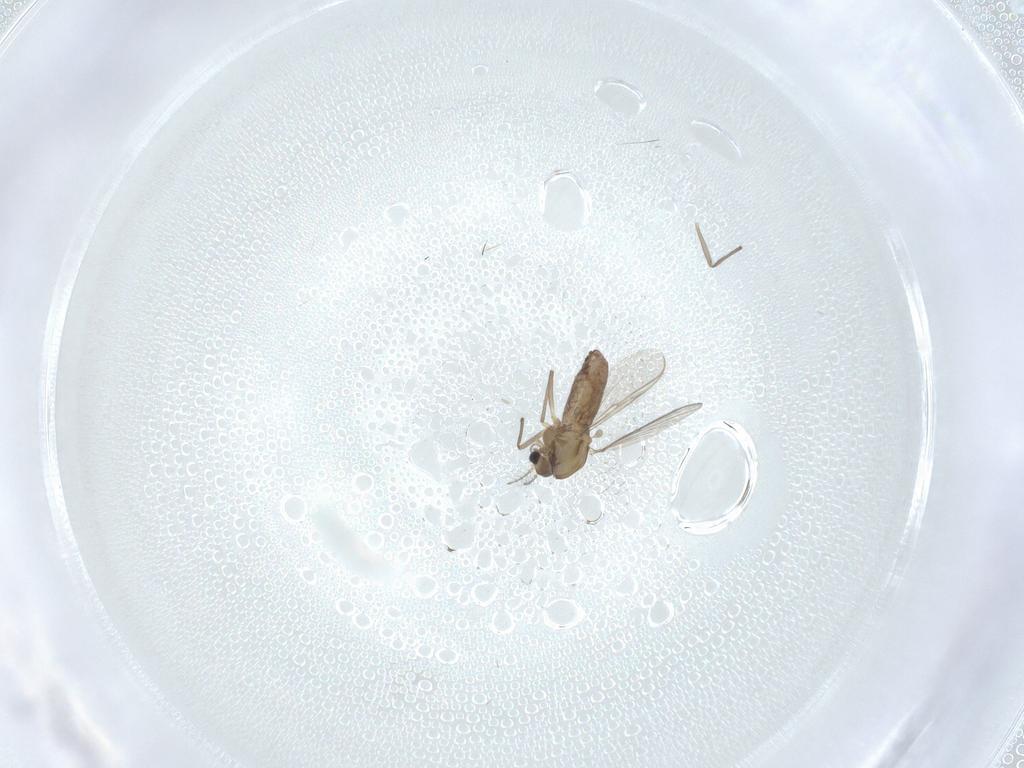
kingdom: Animalia
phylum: Arthropoda
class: Insecta
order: Diptera
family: Chironomidae
